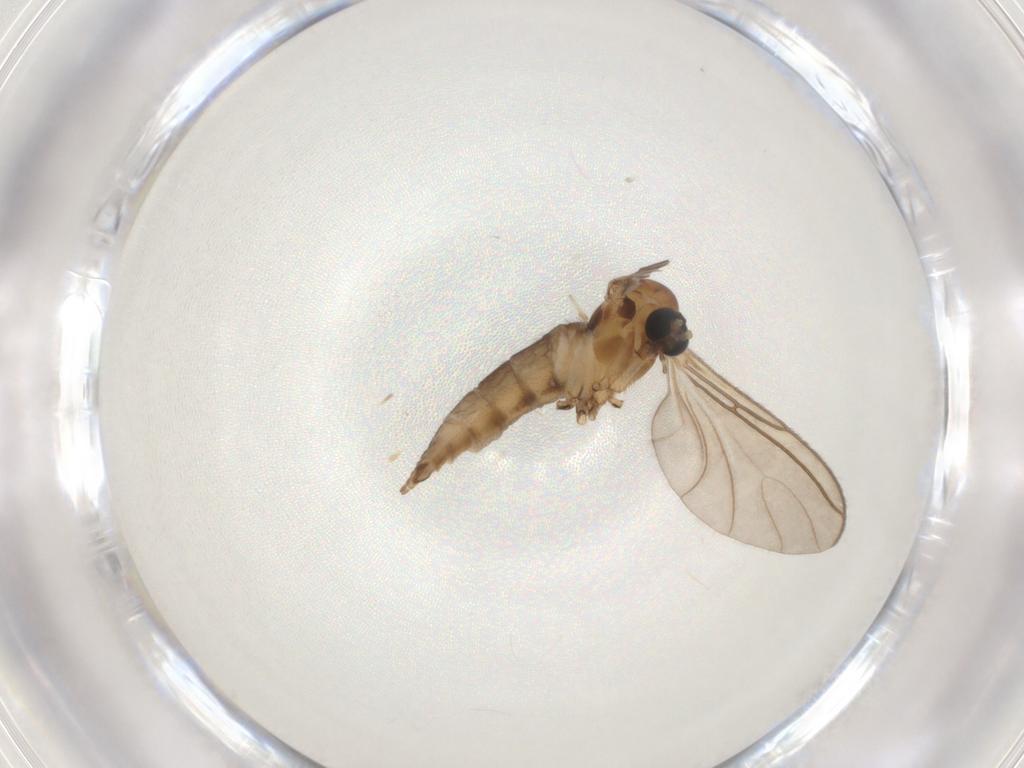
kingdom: Animalia
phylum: Arthropoda
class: Insecta
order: Diptera
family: Sciaridae
